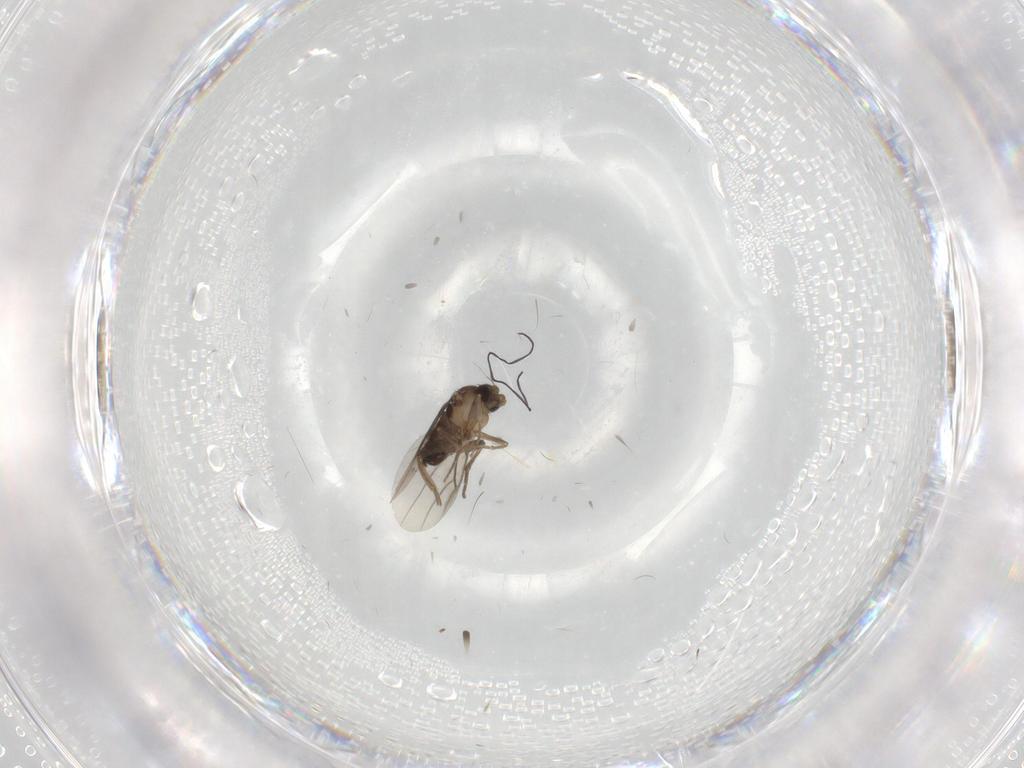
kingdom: Animalia
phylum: Arthropoda
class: Insecta
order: Diptera
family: Phoridae
